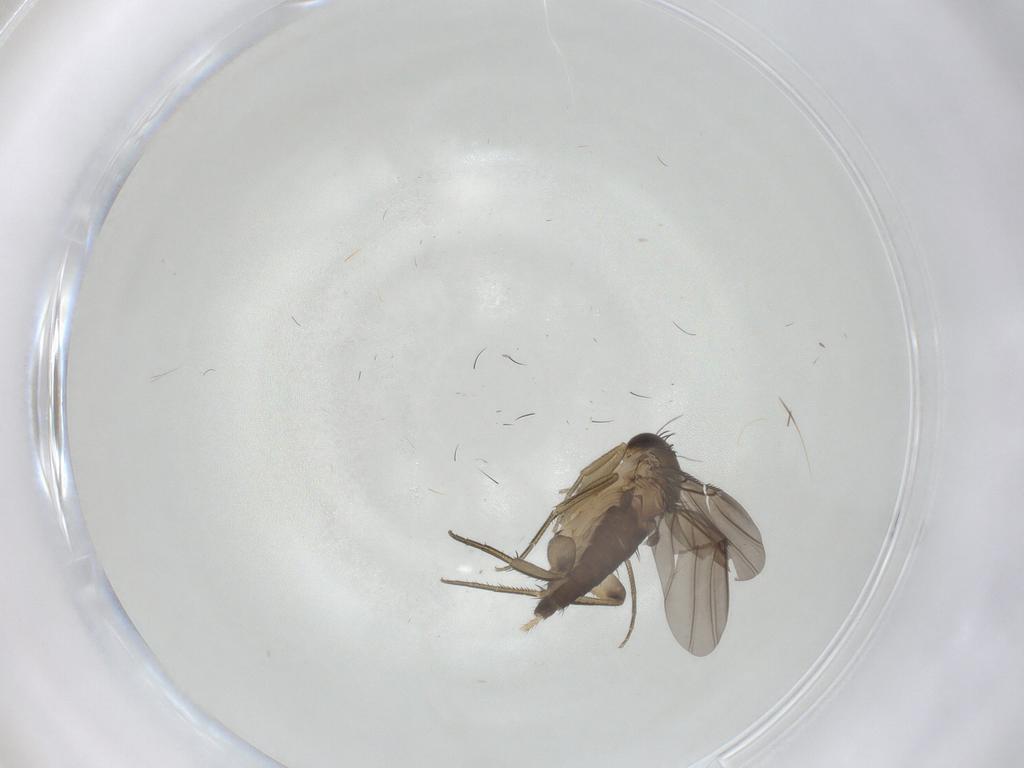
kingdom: Animalia
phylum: Arthropoda
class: Insecta
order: Diptera
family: Phoridae
